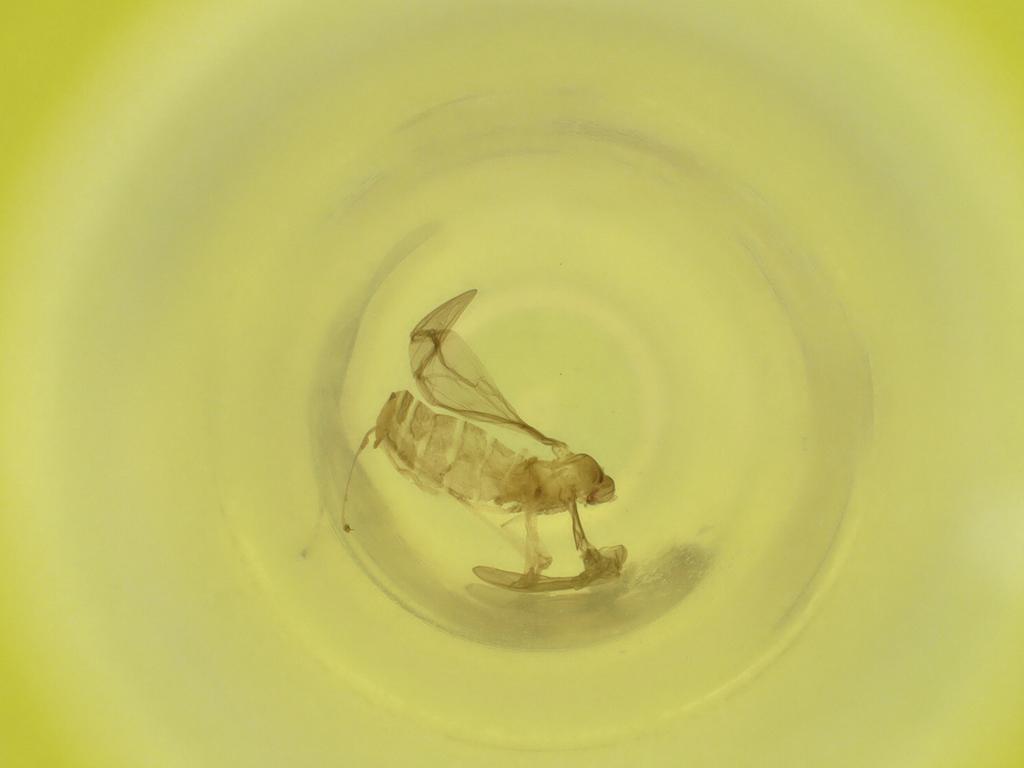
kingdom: Animalia
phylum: Arthropoda
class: Insecta
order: Diptera
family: Cecidomyiidae
